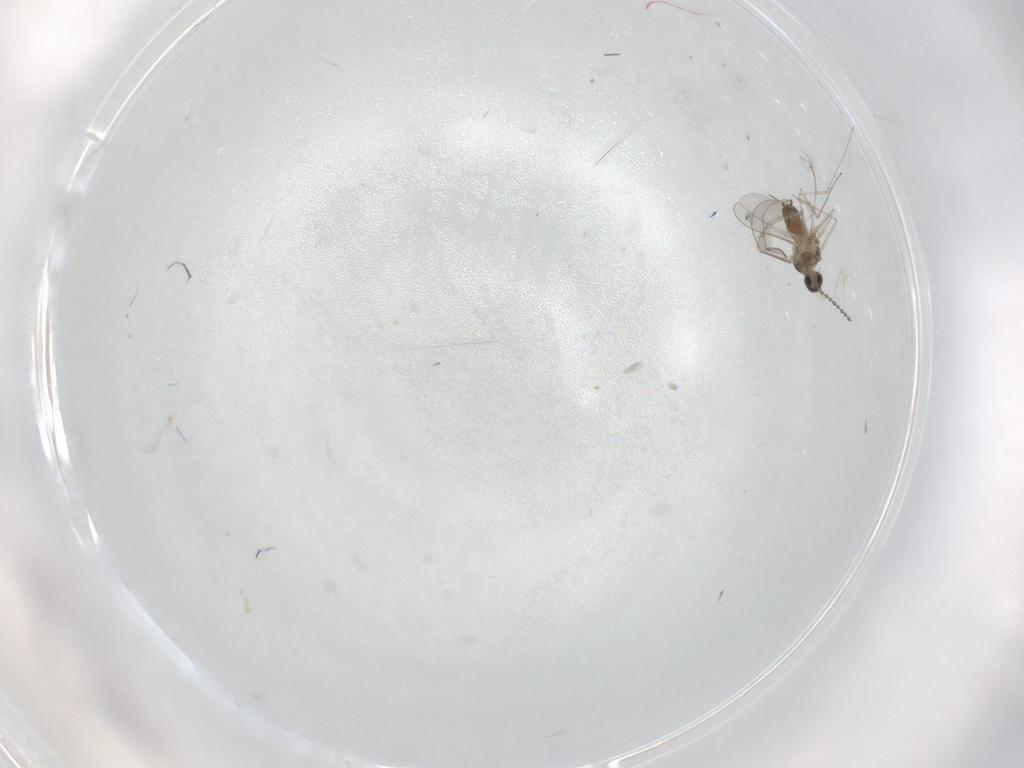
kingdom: Animalia
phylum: Arthropoda
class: Insecta
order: Diptera
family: Cecidomyiidae
